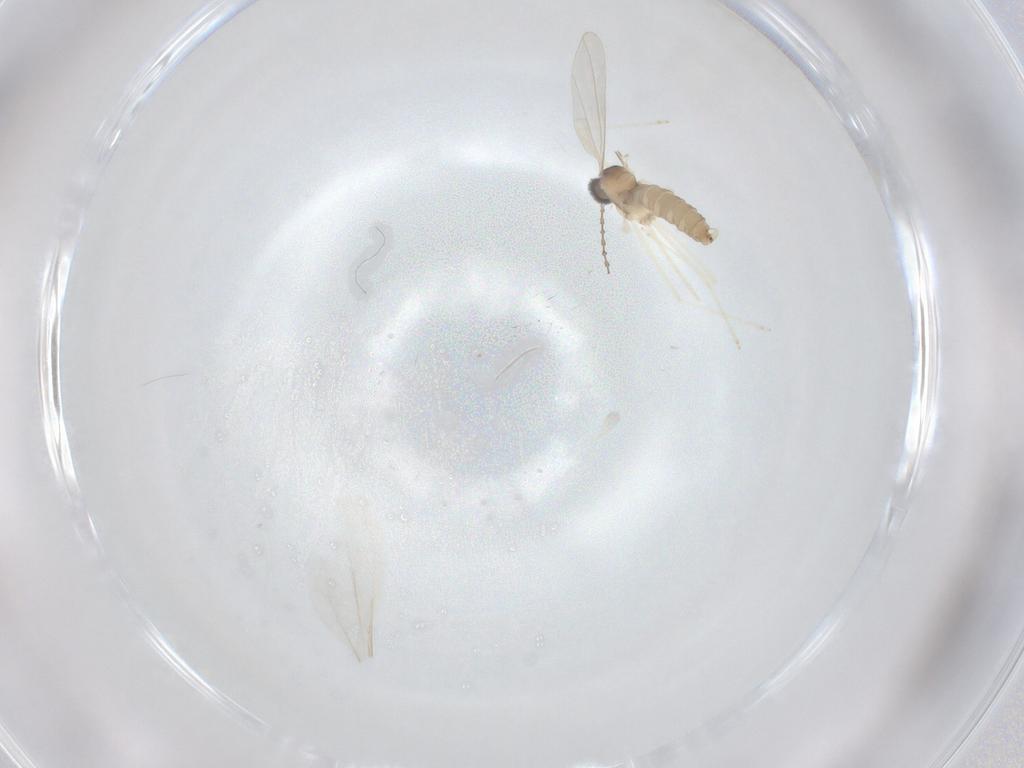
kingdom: Animalia
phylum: Arthropoda
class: Insecta
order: Diptera
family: Cecidomyiidae
